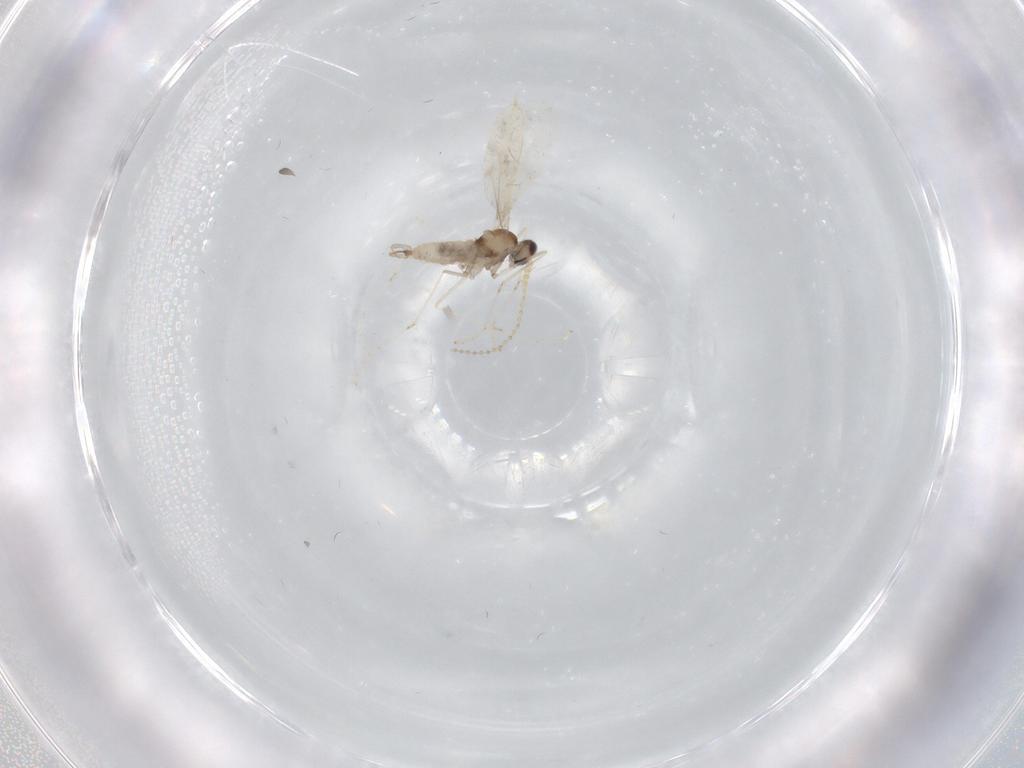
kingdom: Animalia
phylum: Arthropoda
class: Insecta
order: Diptera
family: Cecidomyiidae
